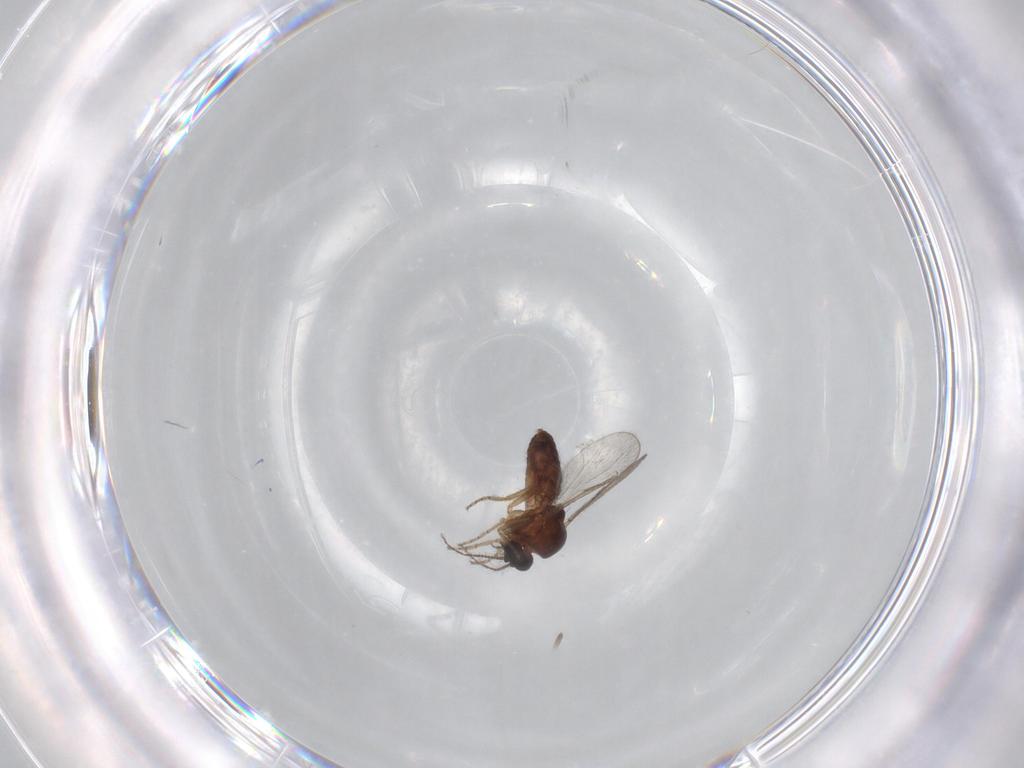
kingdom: Animalia
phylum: Arthropoda
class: Insecta
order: Diptera
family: Ceratopogonidae
